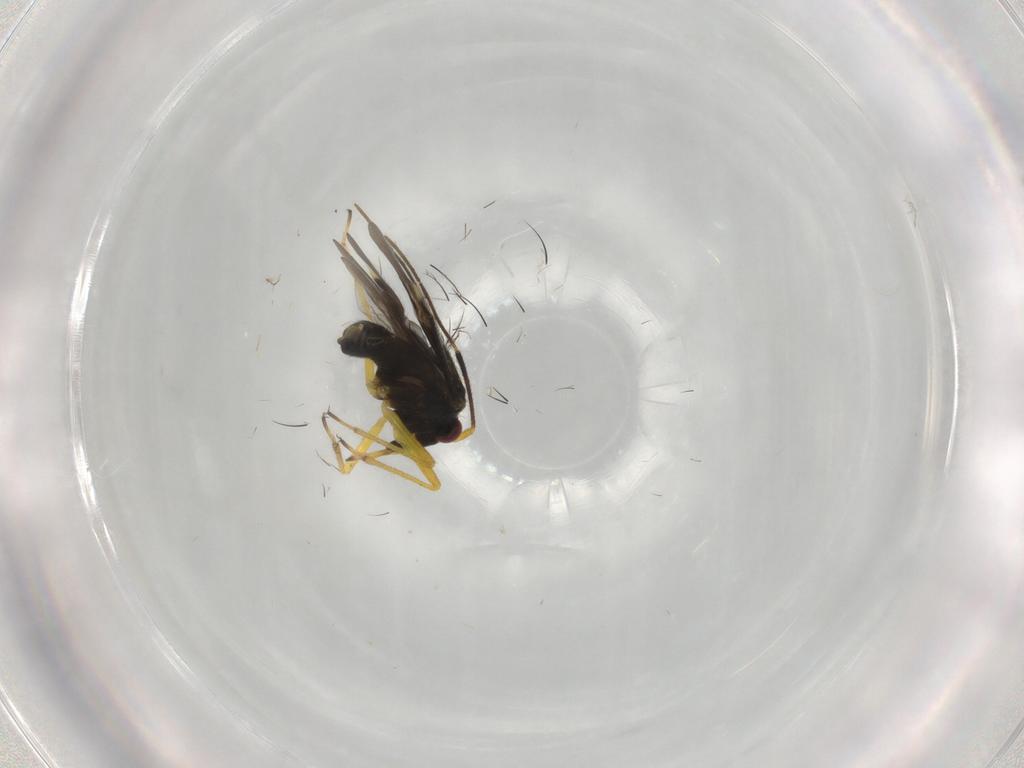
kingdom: Animalia
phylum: Arthropoda
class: Insecta
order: Hemiptera
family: Miridae
